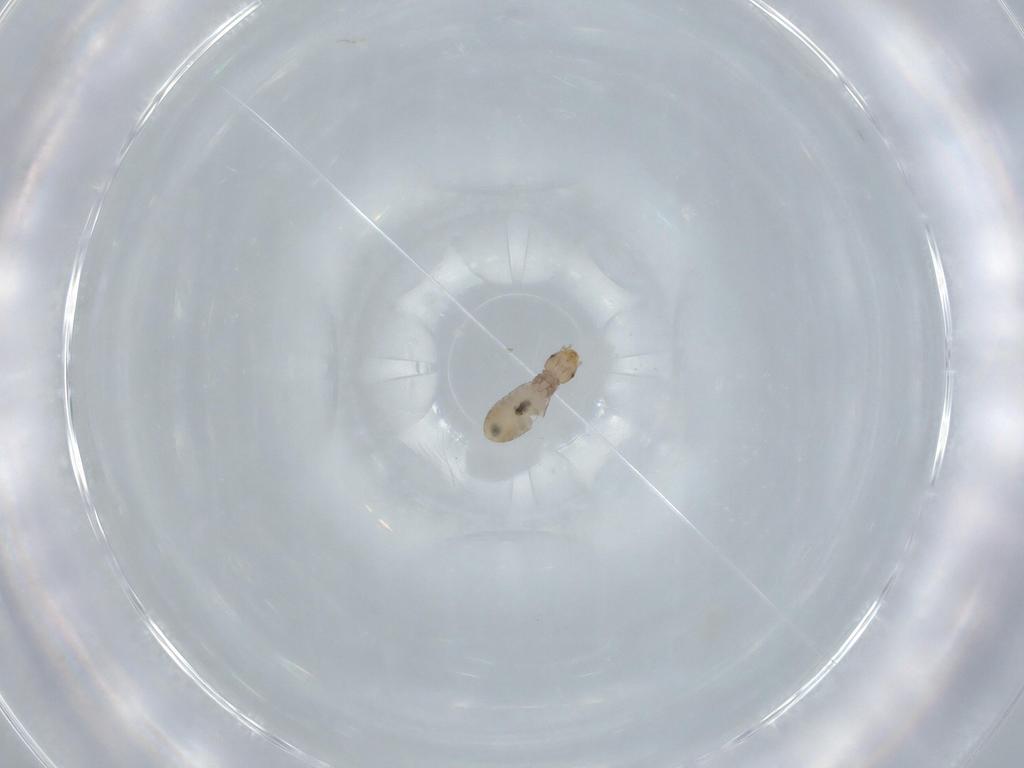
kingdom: Animalia
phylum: Arthropoda
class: Insecta
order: Psocodea
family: Liposcelididae
